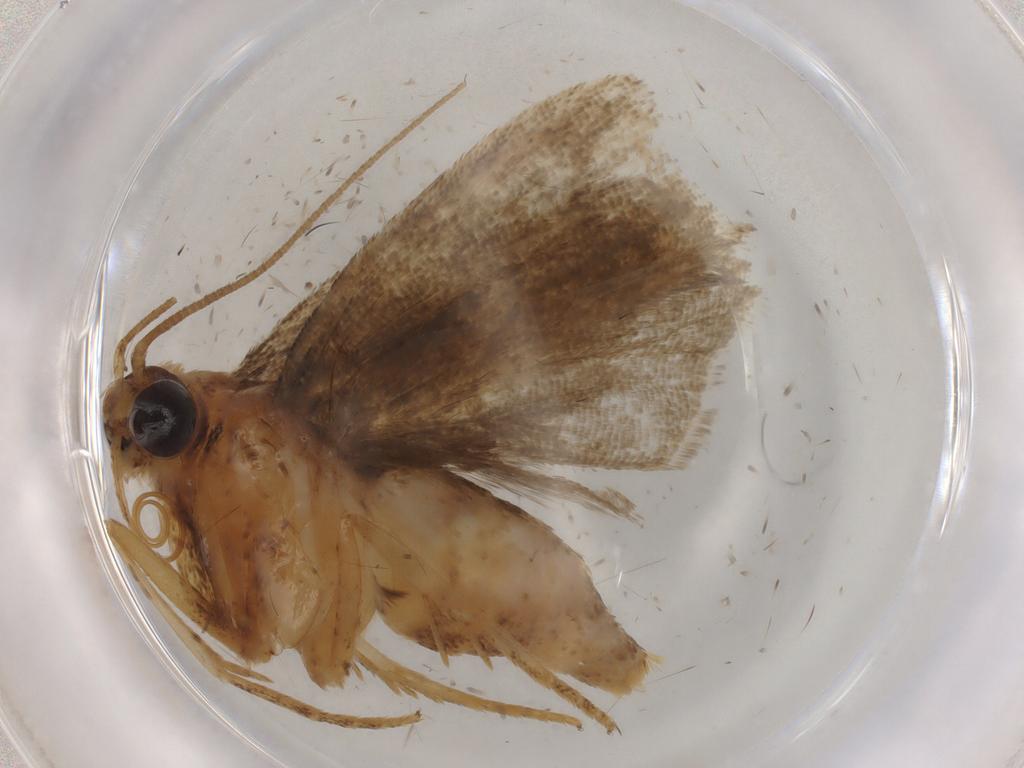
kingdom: Animalia
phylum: Arthropoda
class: Insecta
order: Lepidoptera
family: Pyralidae
